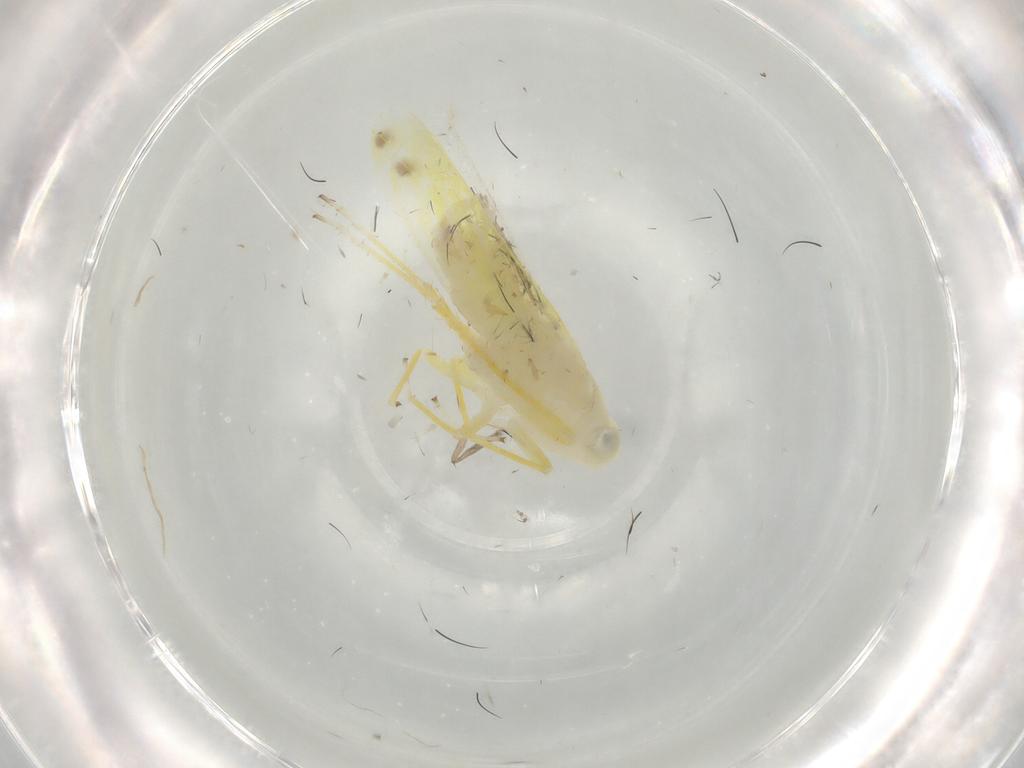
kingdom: Animalia
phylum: Arthropoda
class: Insecta
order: Hemiptera
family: Cicadellidae
